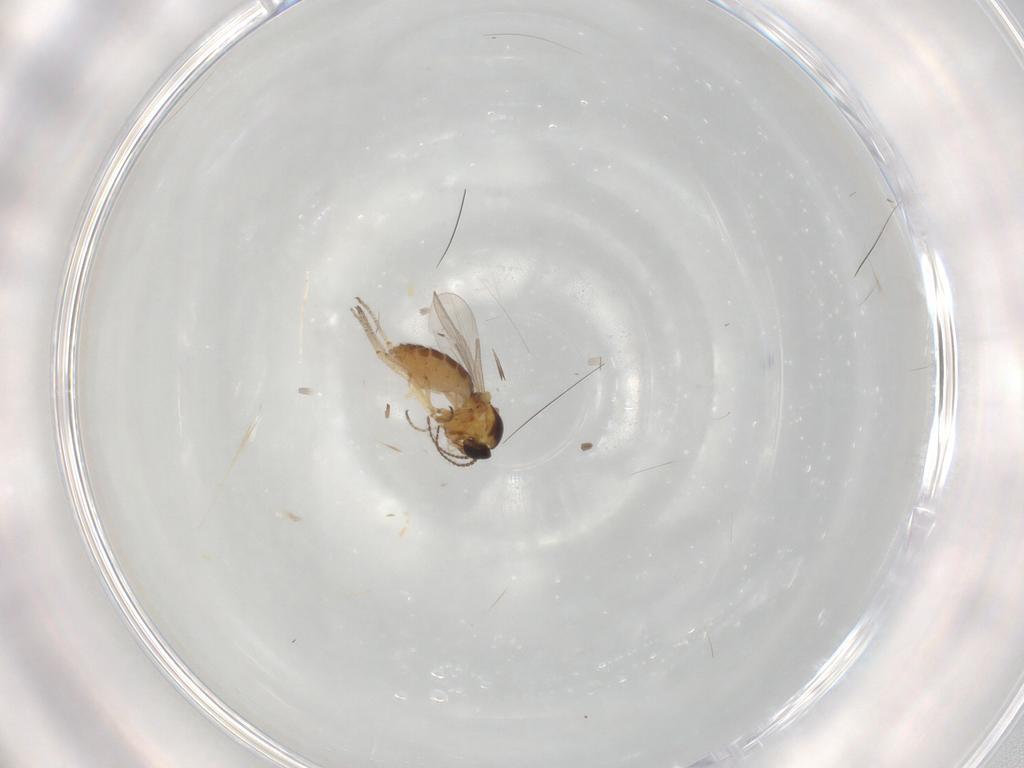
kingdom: Animalia
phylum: Arthropoda
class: Insecta
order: Diptera
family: Ceratopogonidae
